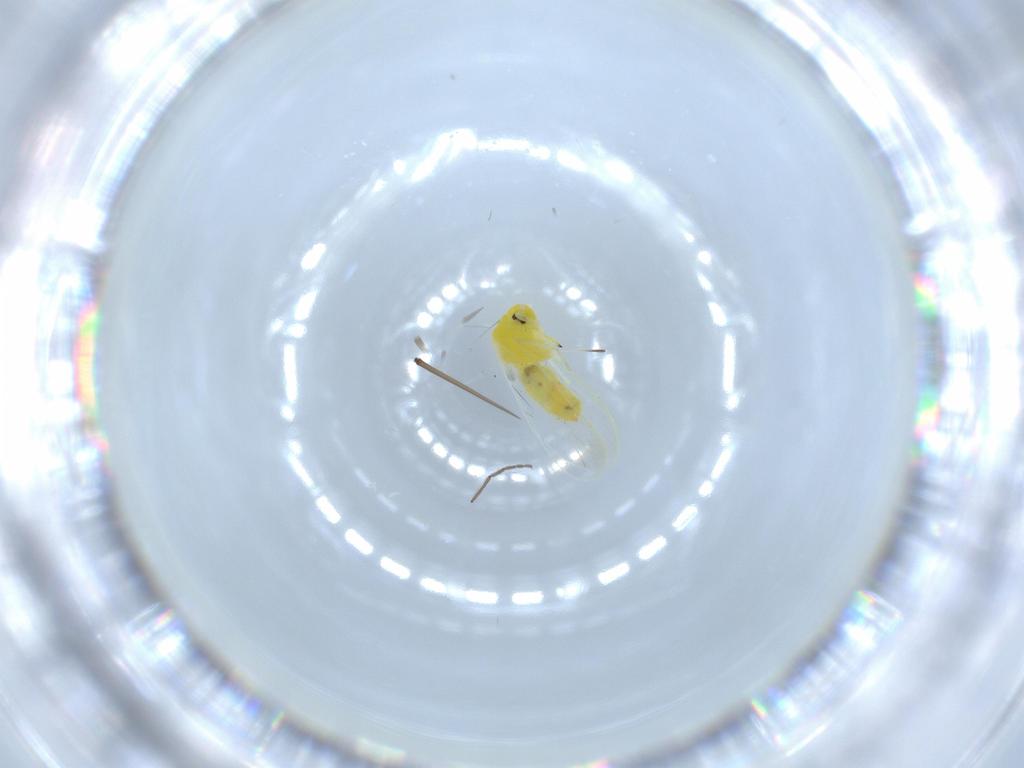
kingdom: Animalia
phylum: Arthropoda
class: Insecta
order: Hemiptera
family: Aleyrodidae
